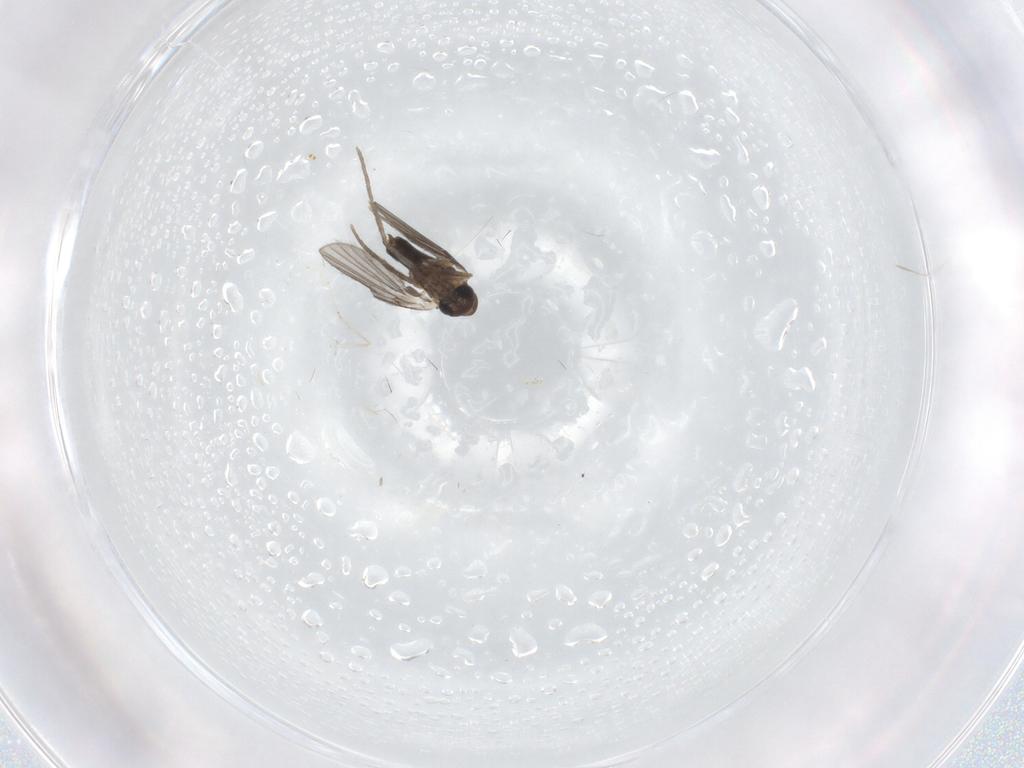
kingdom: Animalia
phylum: Arthropoda
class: Insecta
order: Diptera
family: Cecidomyiidae
